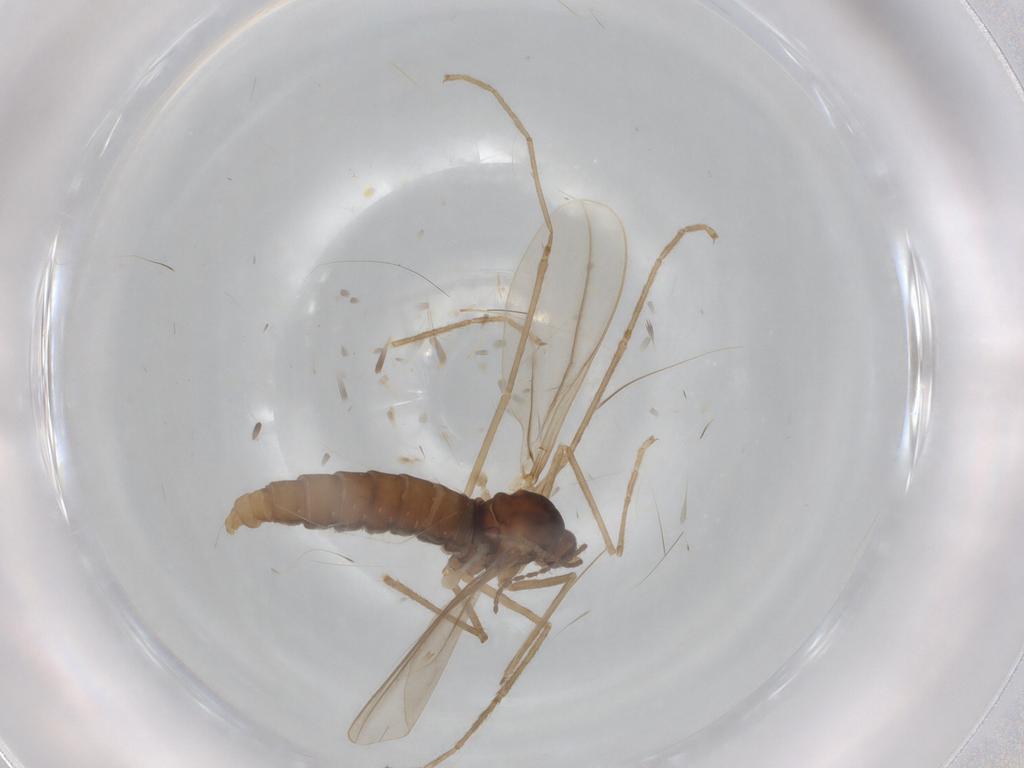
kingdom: Animalia
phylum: Arthropoda
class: Insecta
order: Diptera
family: Cecidomyiidae
